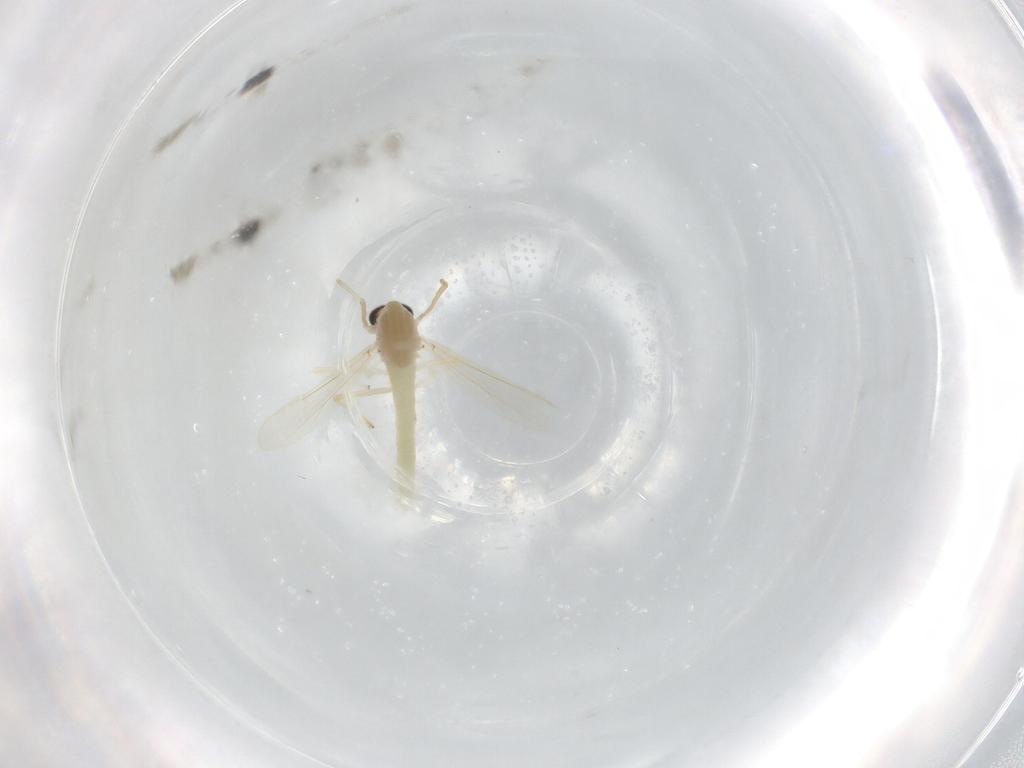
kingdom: Animalia
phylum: Arthropoda
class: Insecta
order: Diptera
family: Chironomidae
